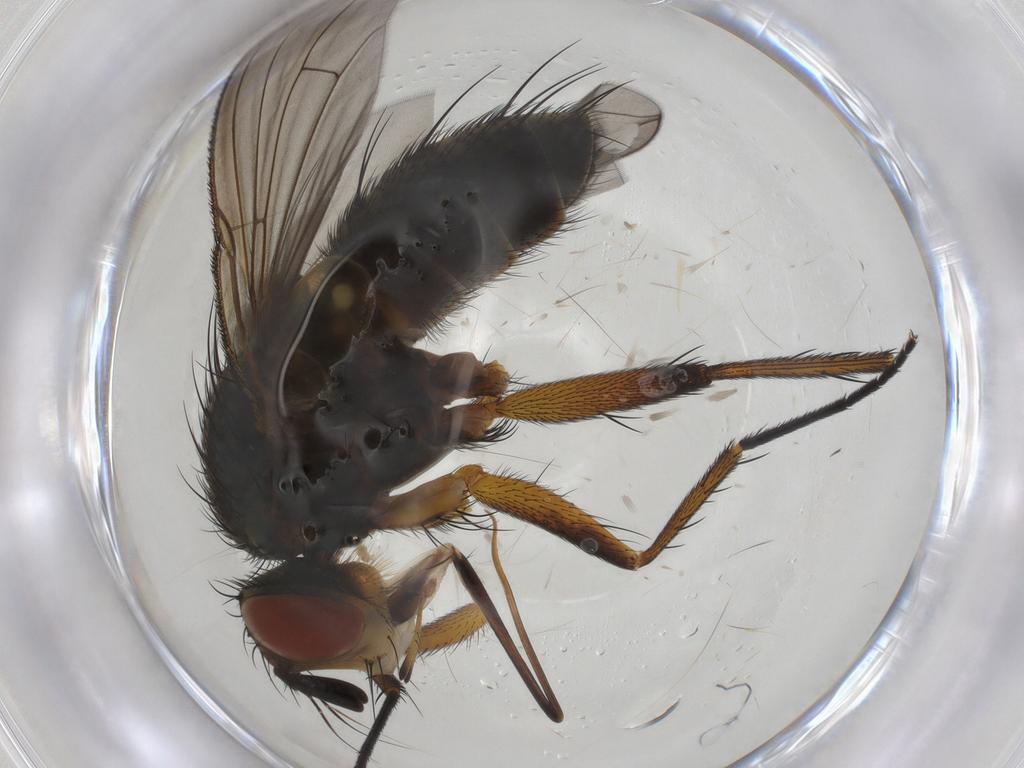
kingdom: Animalia
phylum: Arthropoda
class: Insecta
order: Diptera
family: Tachinidae
